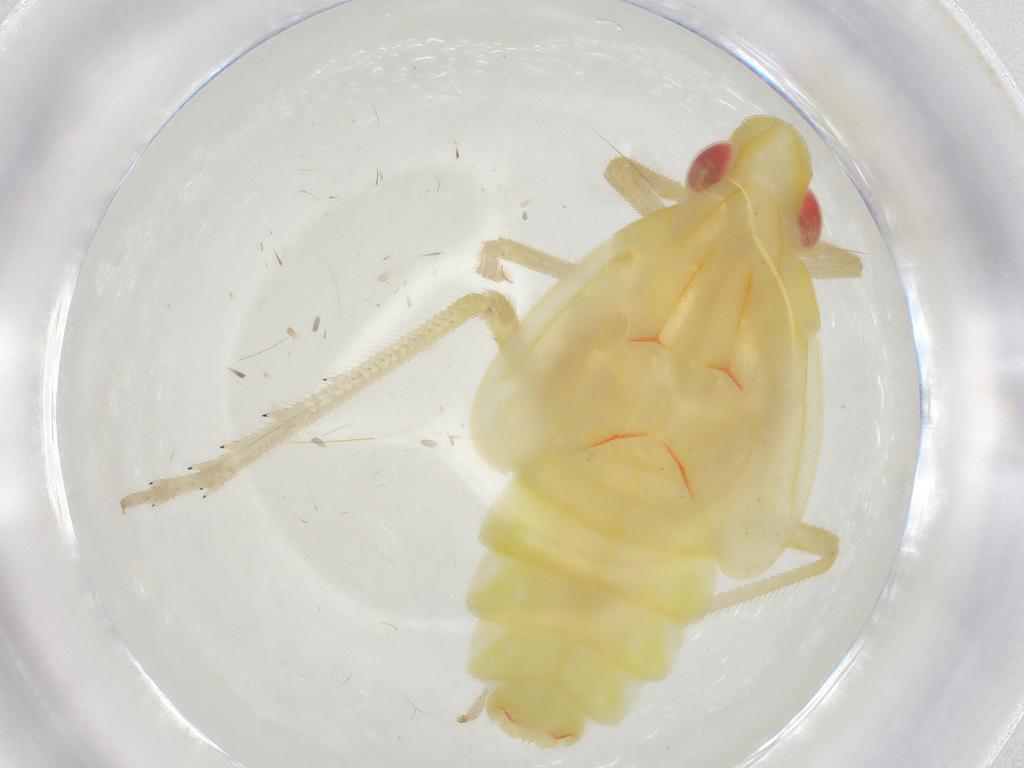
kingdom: Animalia
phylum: Arthropoda
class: Insecta
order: Hemiptera
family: Tropiduchidae
